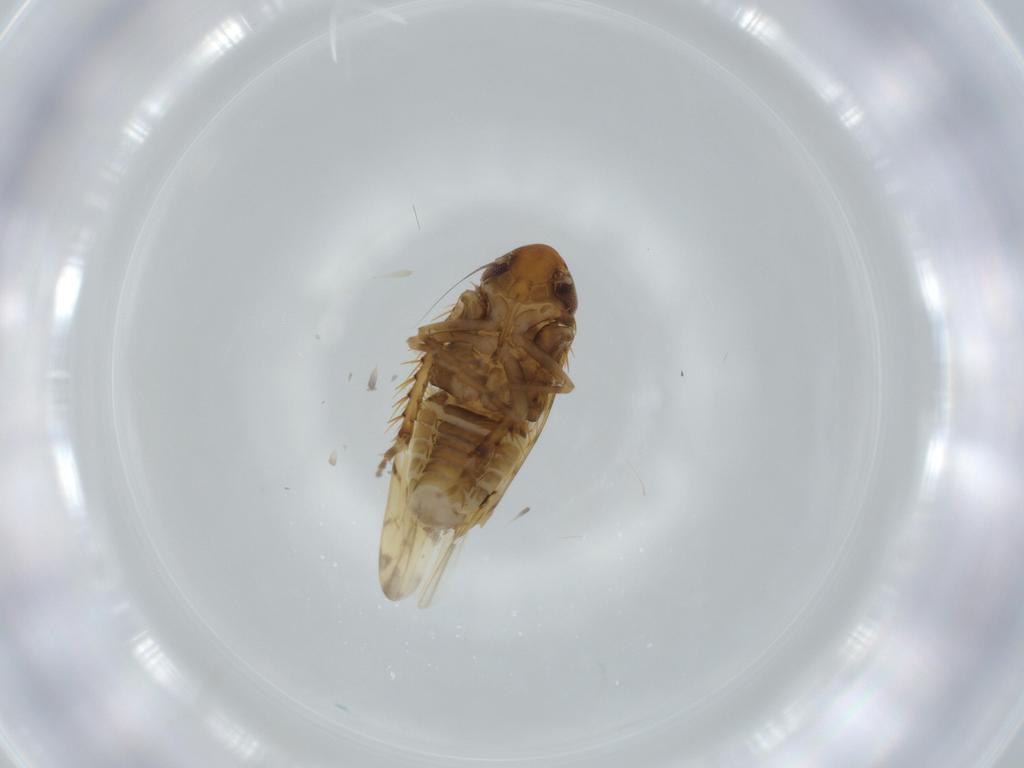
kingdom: Animalia
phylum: Arthropoda
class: Insecta
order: Hemiptera
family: Cicadellidae
